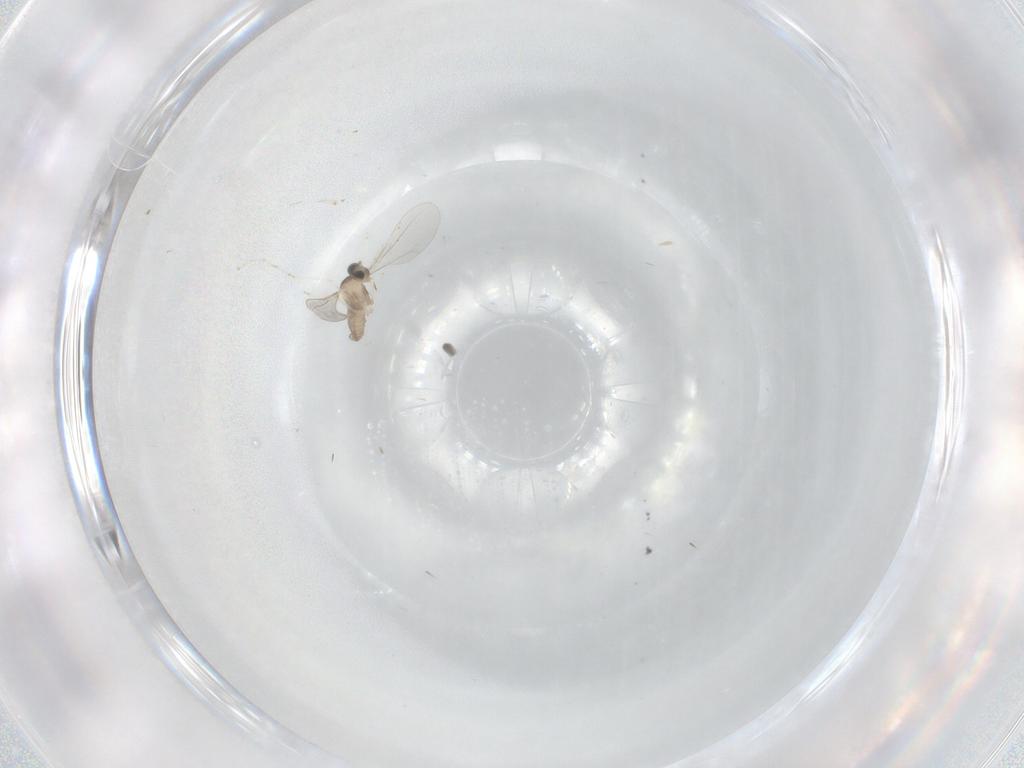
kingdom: Animalia
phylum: Arthropoda
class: Insecta
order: Diptera
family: Cecidomyiidae
